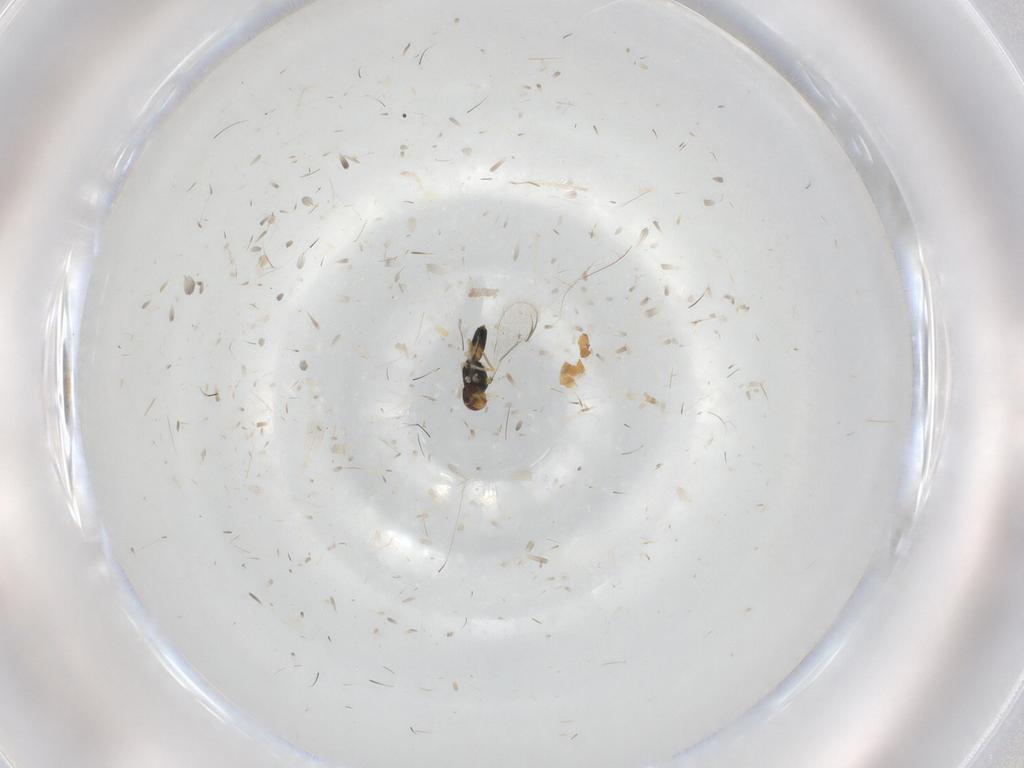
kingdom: Animalia
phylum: Arthropoda
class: Insecta
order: Hymenoptera
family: Eulophidae
